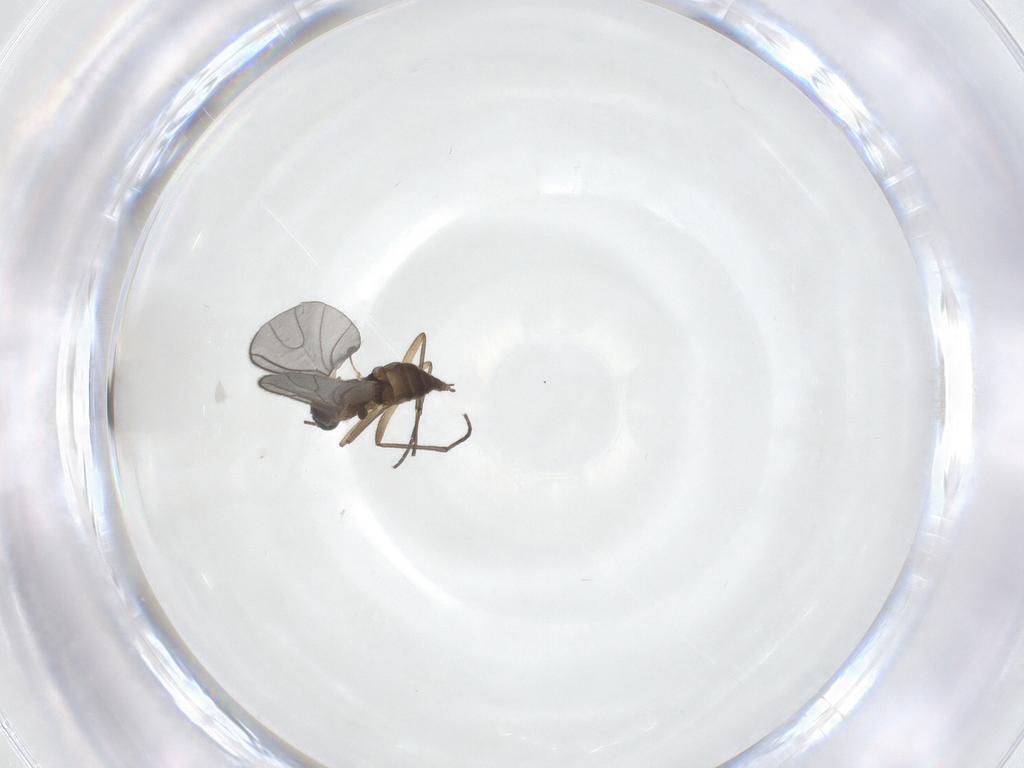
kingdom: Animalia
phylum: Arthropoda
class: Insecta
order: Diptera
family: Sciaridae
